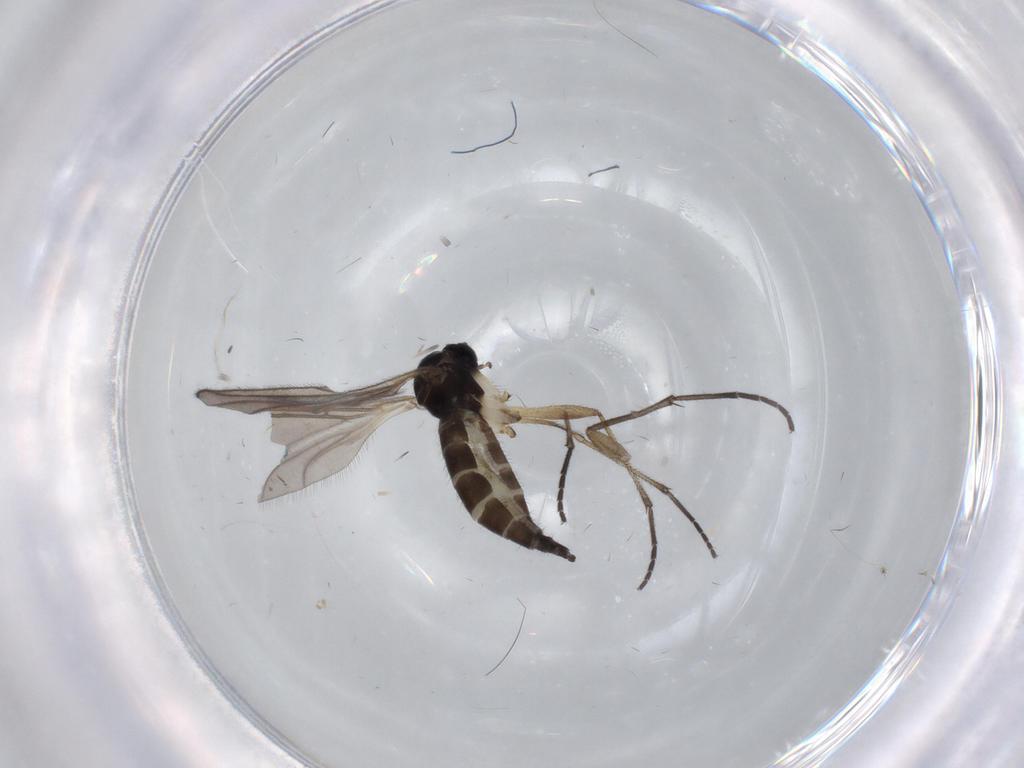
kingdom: Animalia
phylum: Arthropoda
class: Insecta
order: Diptera
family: Sciaridae
